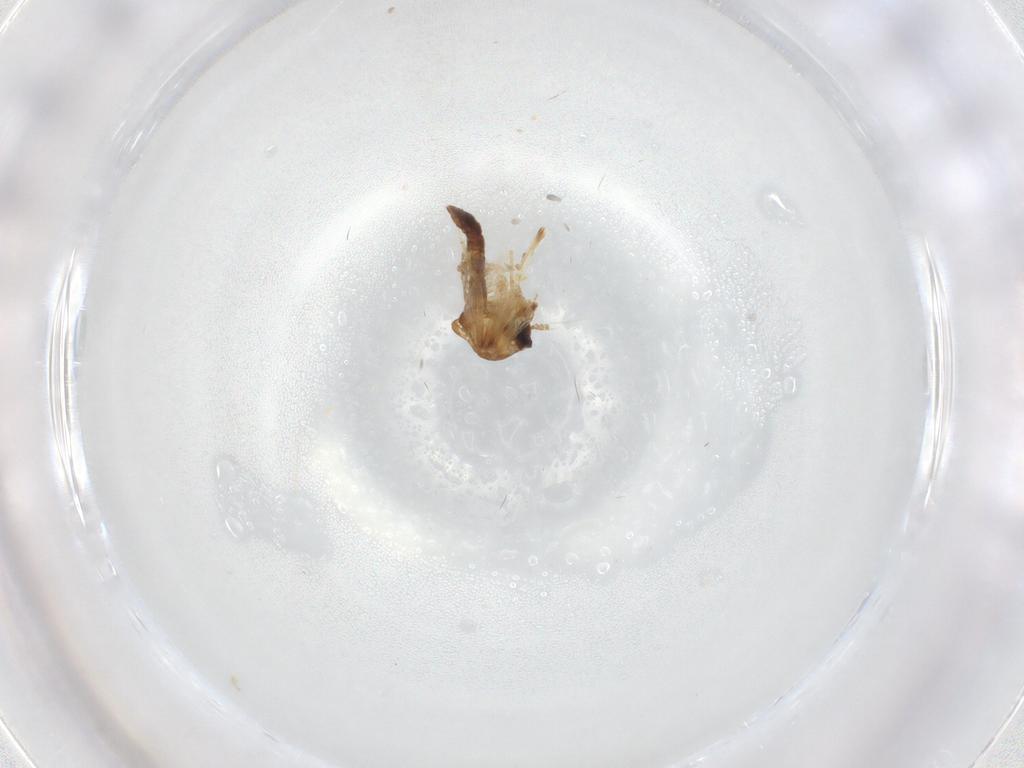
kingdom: Animalia
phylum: Arthropoda
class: Insecta
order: Diptera
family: Ceratopogonidae
